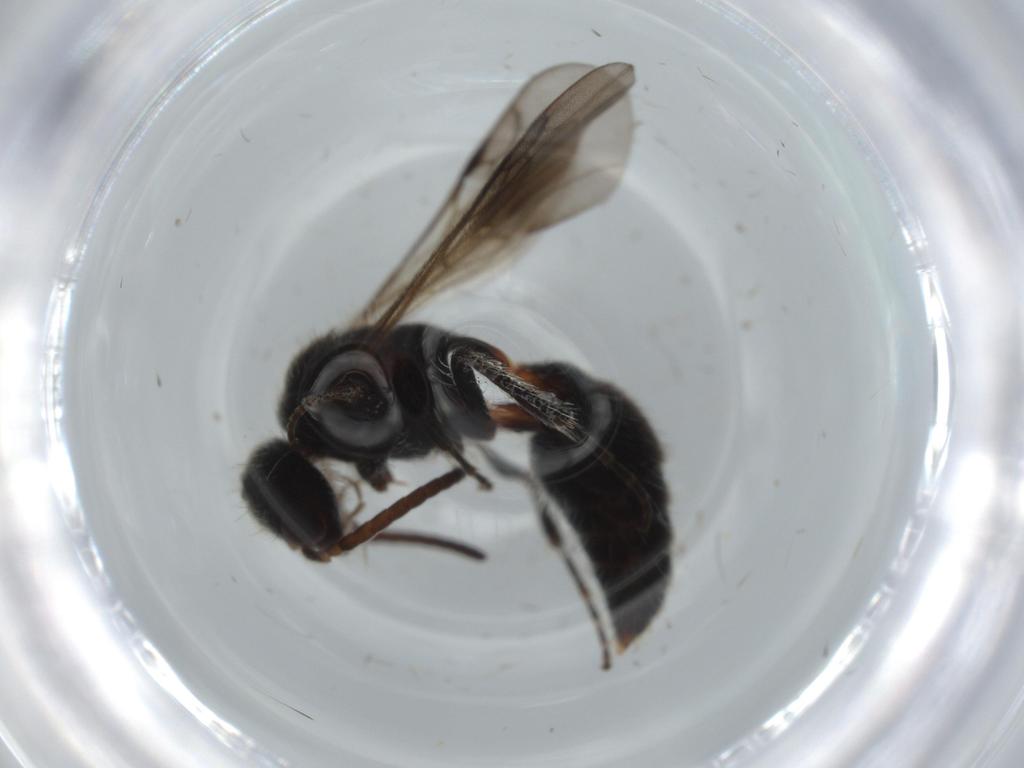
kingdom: Animalia
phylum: Arthropoda
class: Insecta
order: Hymenoptera
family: Mutillidae
